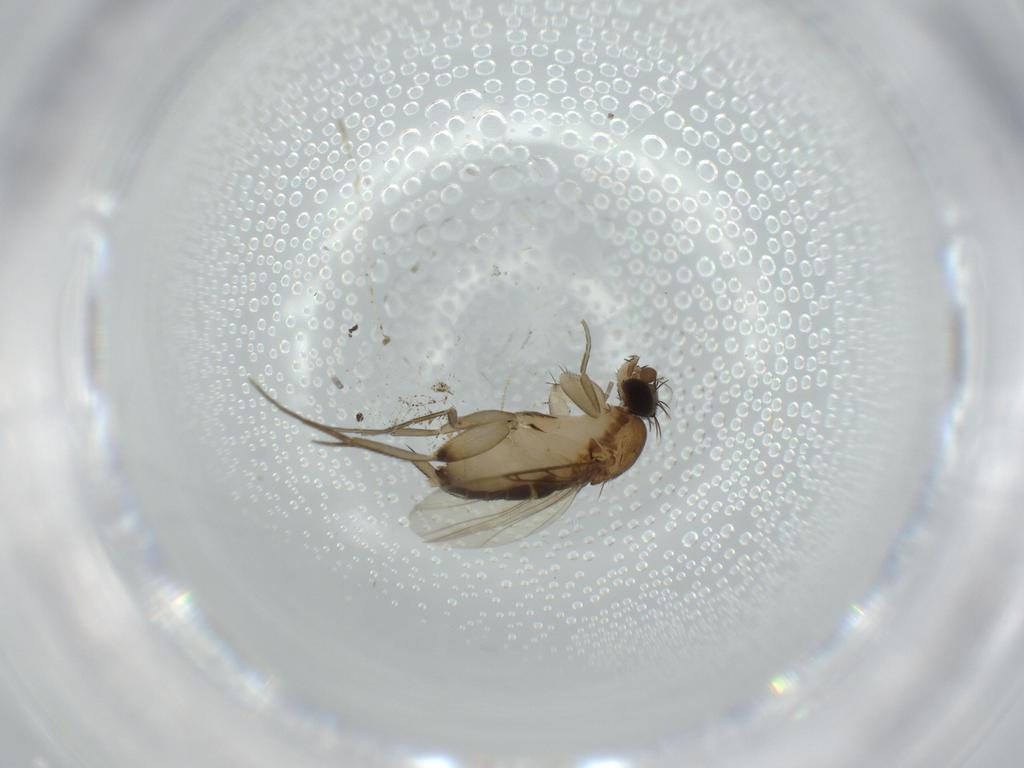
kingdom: Animalia
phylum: Arthropoda
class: Insecta
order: Diptera
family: Phoridae
